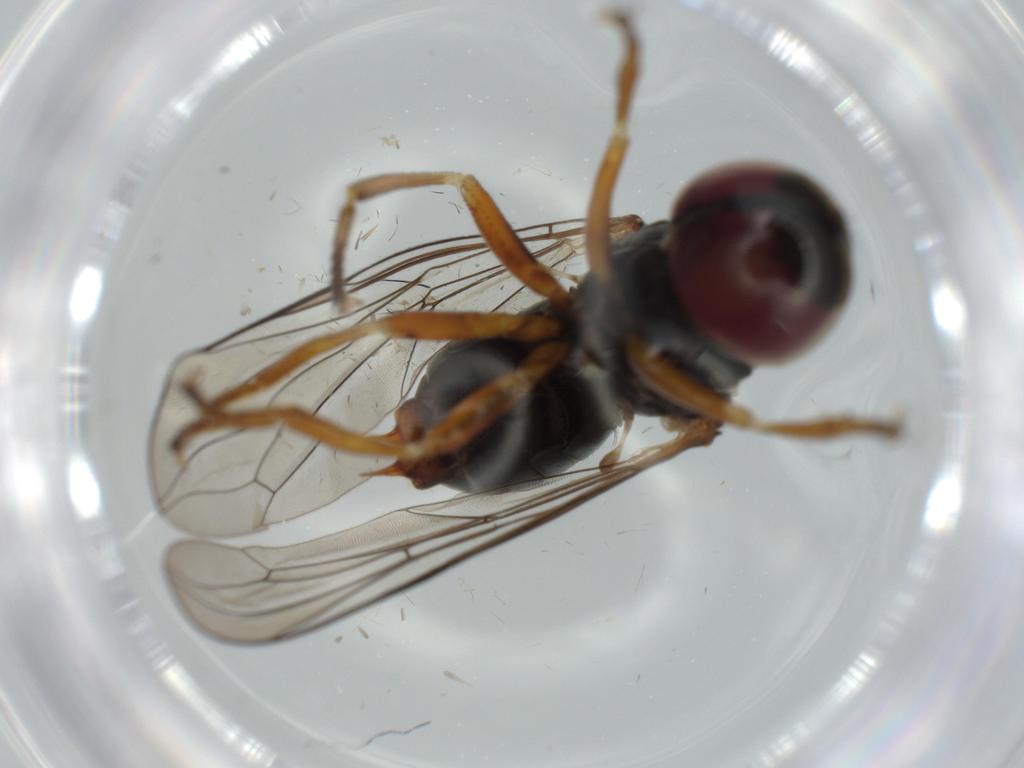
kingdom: Animalia
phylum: Arthropoda
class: Insecta
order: Diptera
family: Pipunculidae
